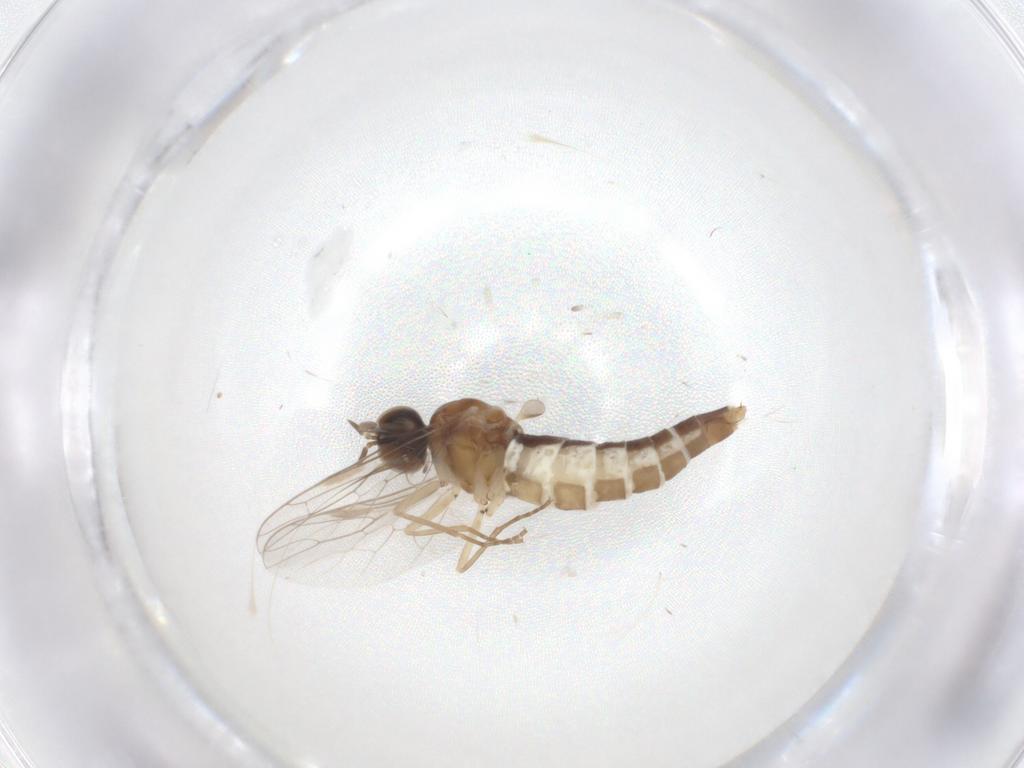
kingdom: Animalia
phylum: Arthropoda
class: Insecta
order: Diptera
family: Scenopinidae
